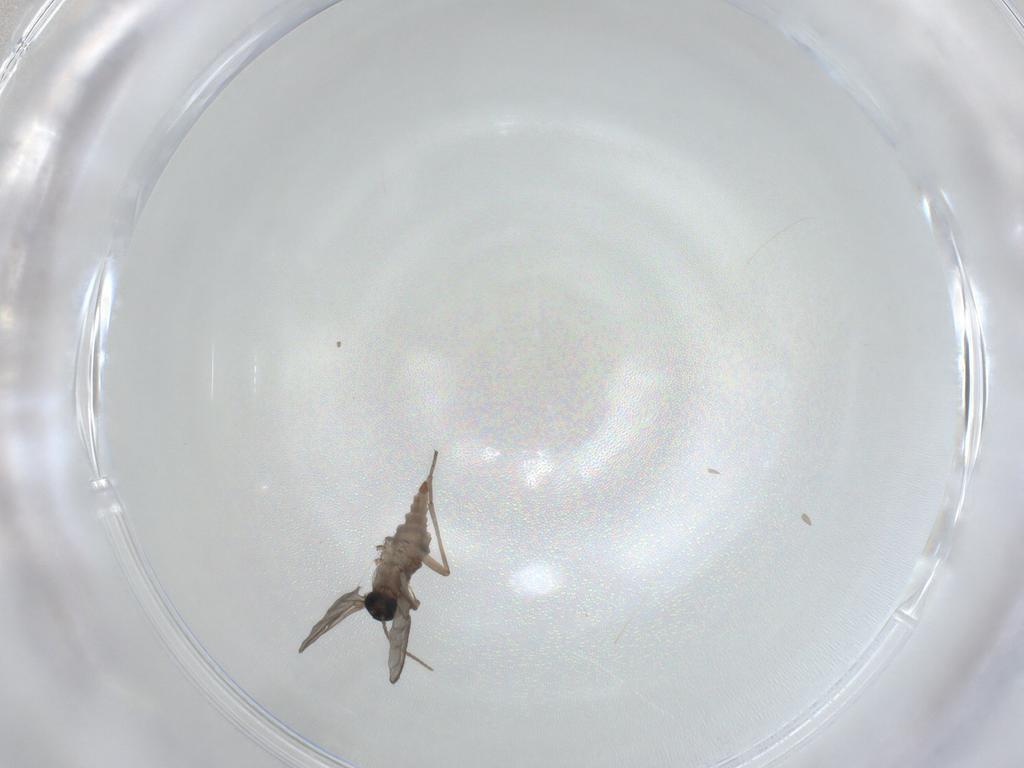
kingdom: Animalia
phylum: Arthropoda
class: Insecta
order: Diptera
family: Sciaridae
